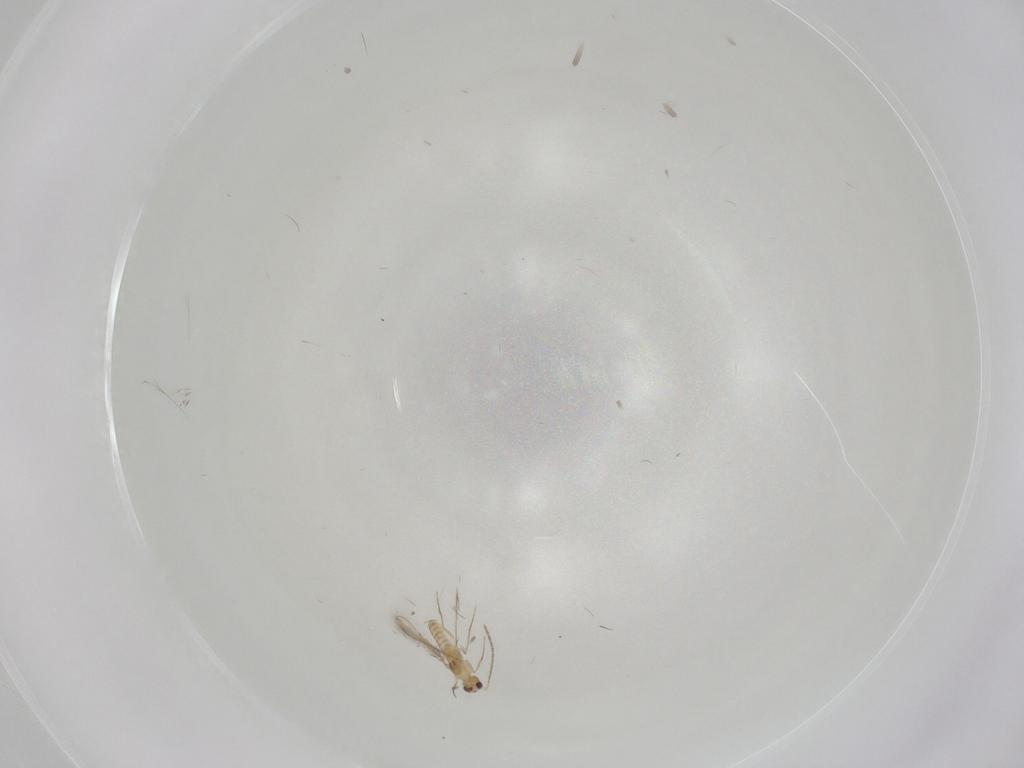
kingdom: Animalia
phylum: Arthropoda
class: Insecta
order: Hymenoptera
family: Mymaridae
